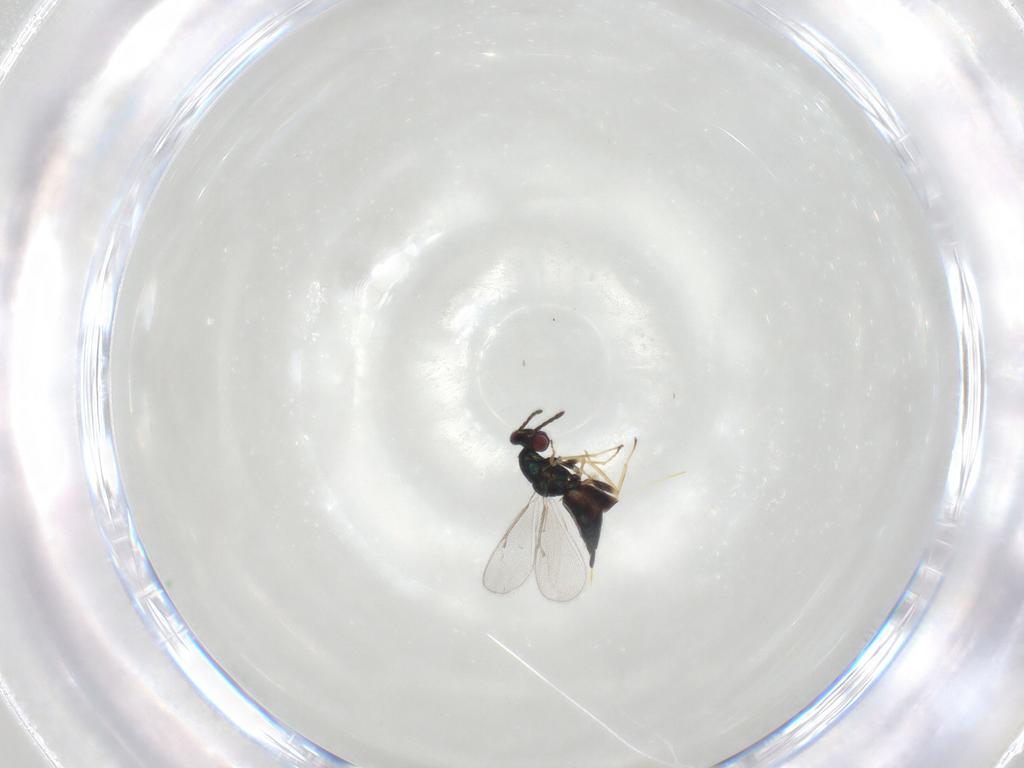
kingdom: Animalia
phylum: Arthropoda
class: Insecta
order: Hymenoptera
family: Eulophidae
